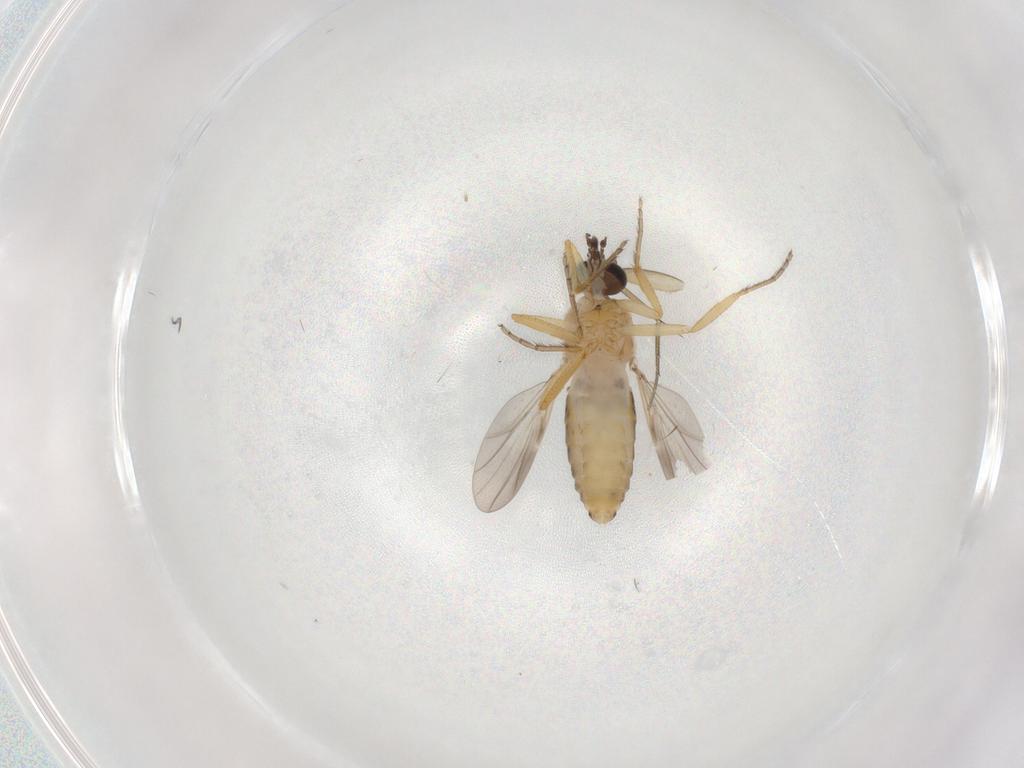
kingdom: Animalia
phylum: Arthropoda
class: Insecta
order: Diptera
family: Ceratopogonidae
